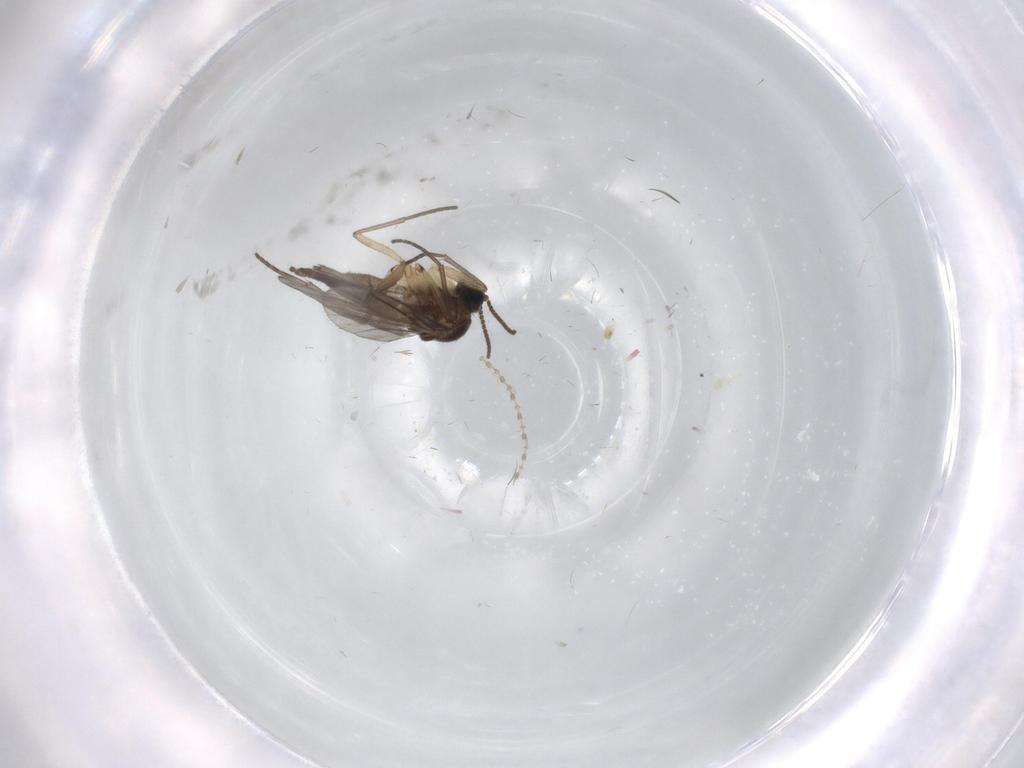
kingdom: Animalia
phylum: Arthropoda
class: Insecta
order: Diptera
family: Sciaridae
